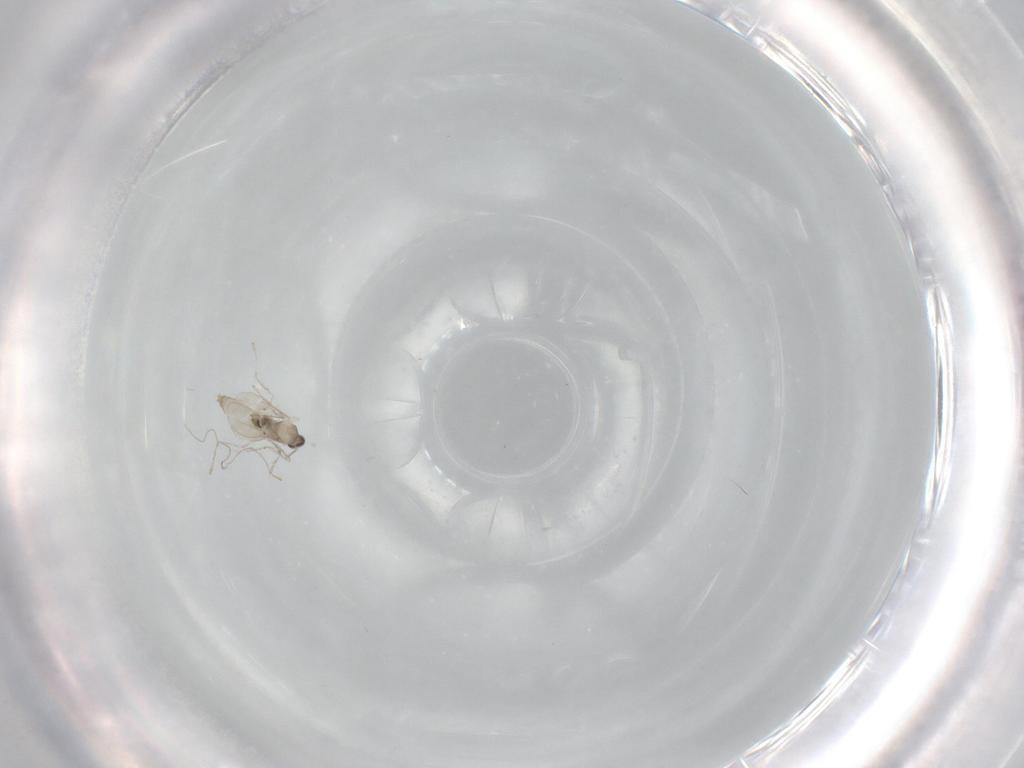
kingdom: Animalia
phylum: Arthropoda
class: Insecta
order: Diptera
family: Cecidomyiidae
